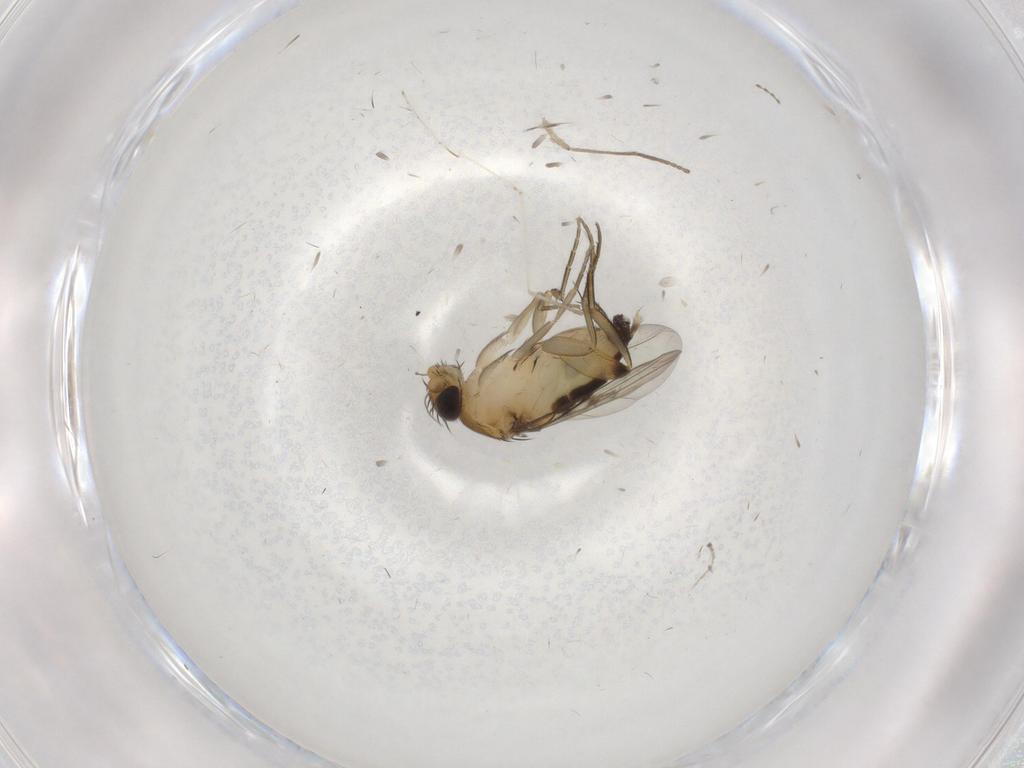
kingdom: Animalia
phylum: Arthropoda
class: Insecta
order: Diptera
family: Phoridae
